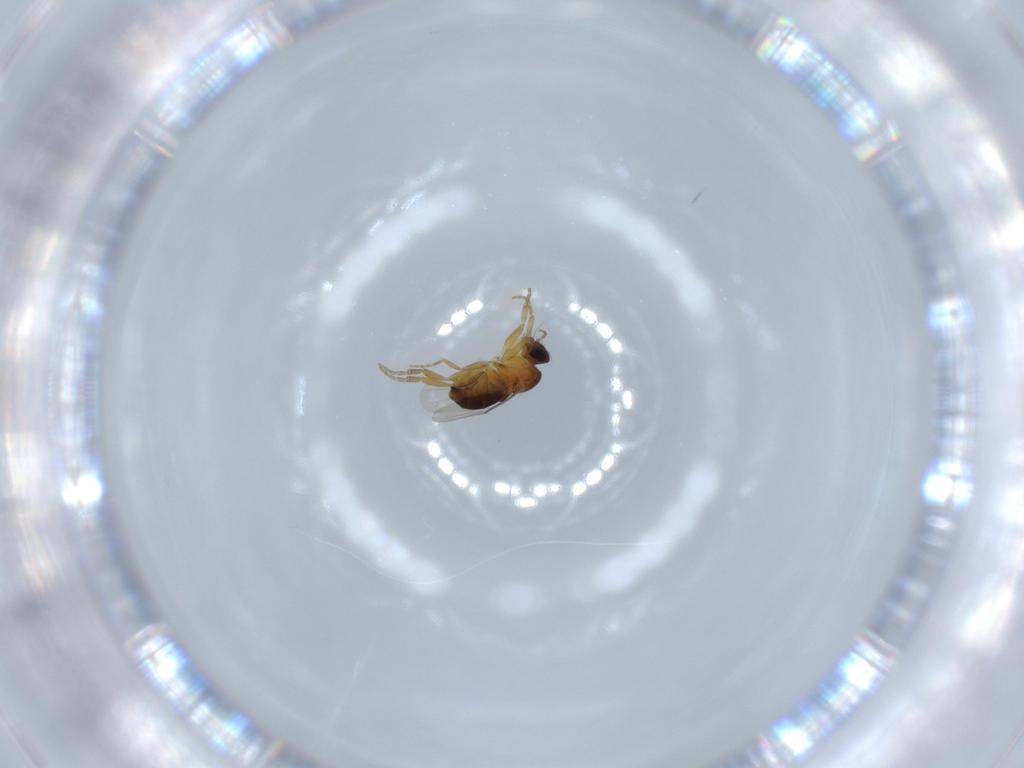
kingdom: Animalia
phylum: Arthropoda
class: Insecta
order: Diptera
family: Phoridae
